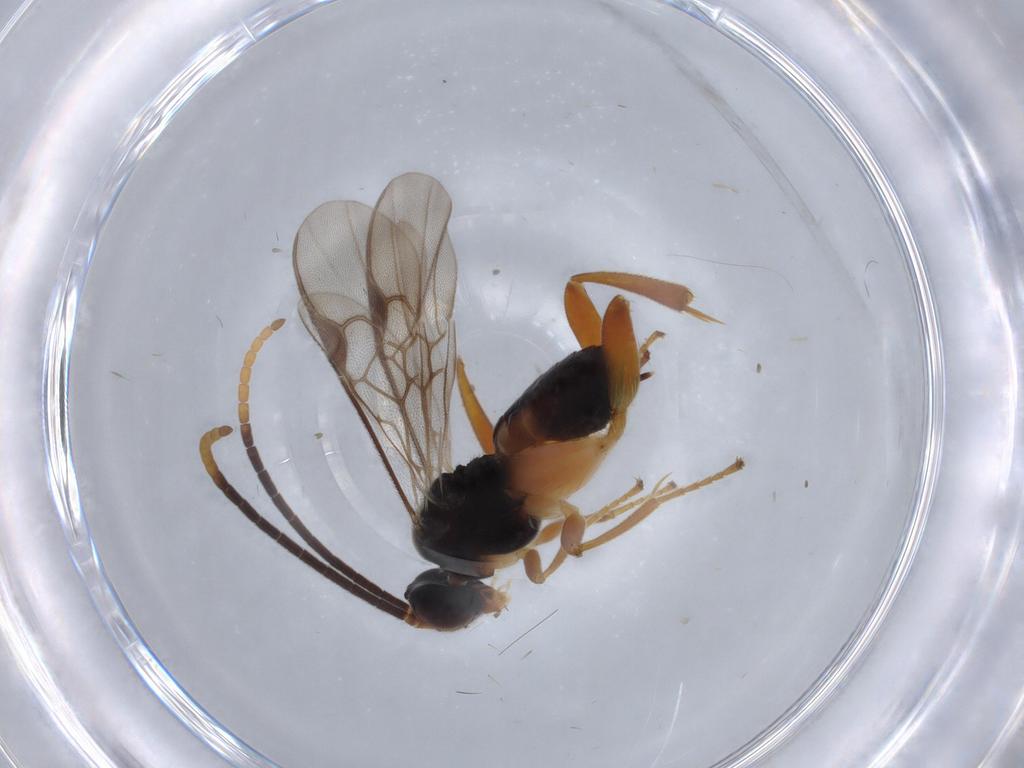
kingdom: Animalia
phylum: Arthropoda
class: Insecta
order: Hymenoptera
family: Braconidae
